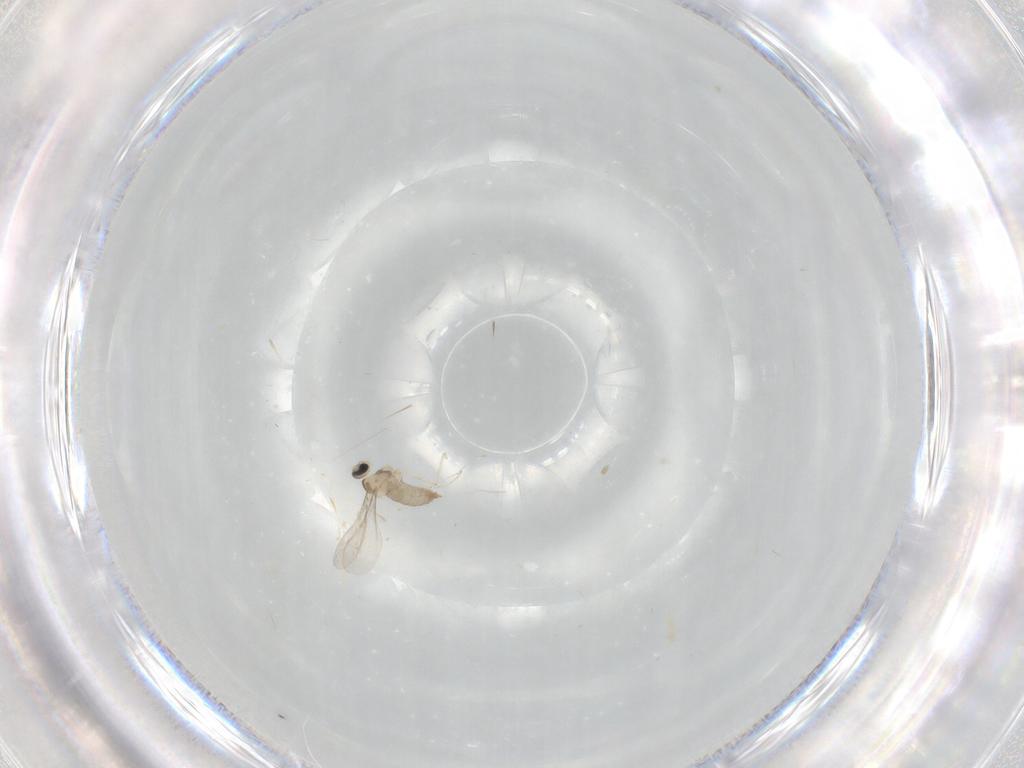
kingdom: Animalia
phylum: Arthropoda
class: Insecta
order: Diptera
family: Cecidomyiidae
